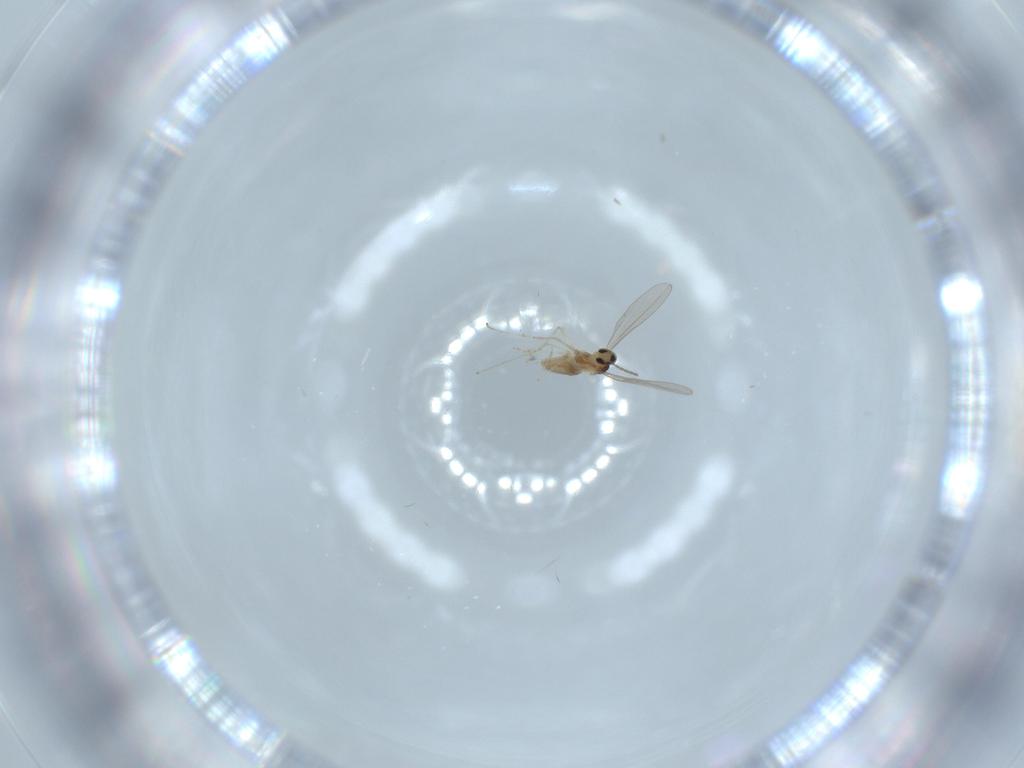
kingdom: Animalia
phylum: Arthropoda
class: Insecta
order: Diptera
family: Cecidomyiidae
